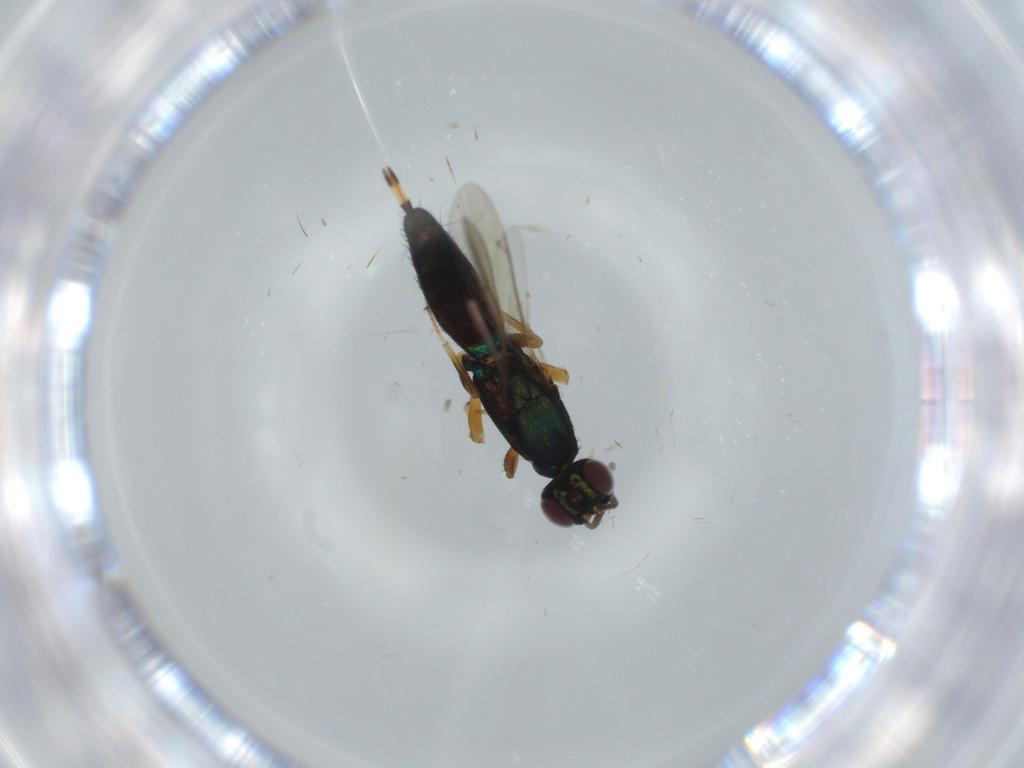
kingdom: Animalia
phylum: Arthropoda
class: Insecta
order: Hymenoptera
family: Eupelmidae
